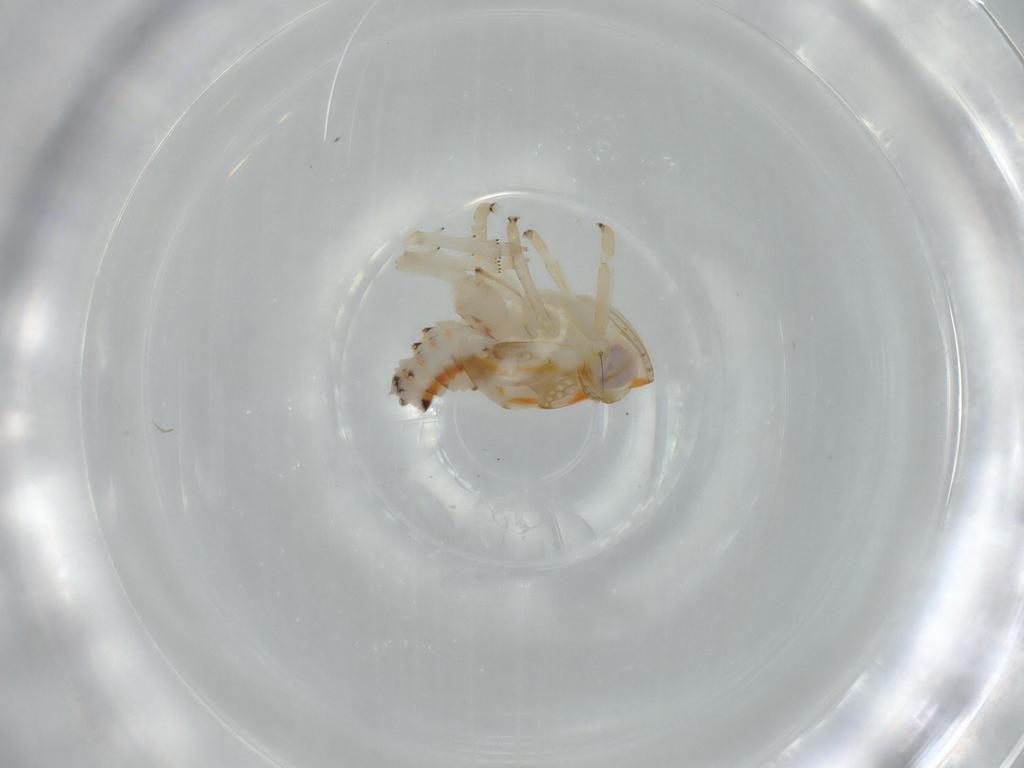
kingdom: Animalia
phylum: Arthropoda
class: Insecta
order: Hemiptera
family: Nogodinidae
